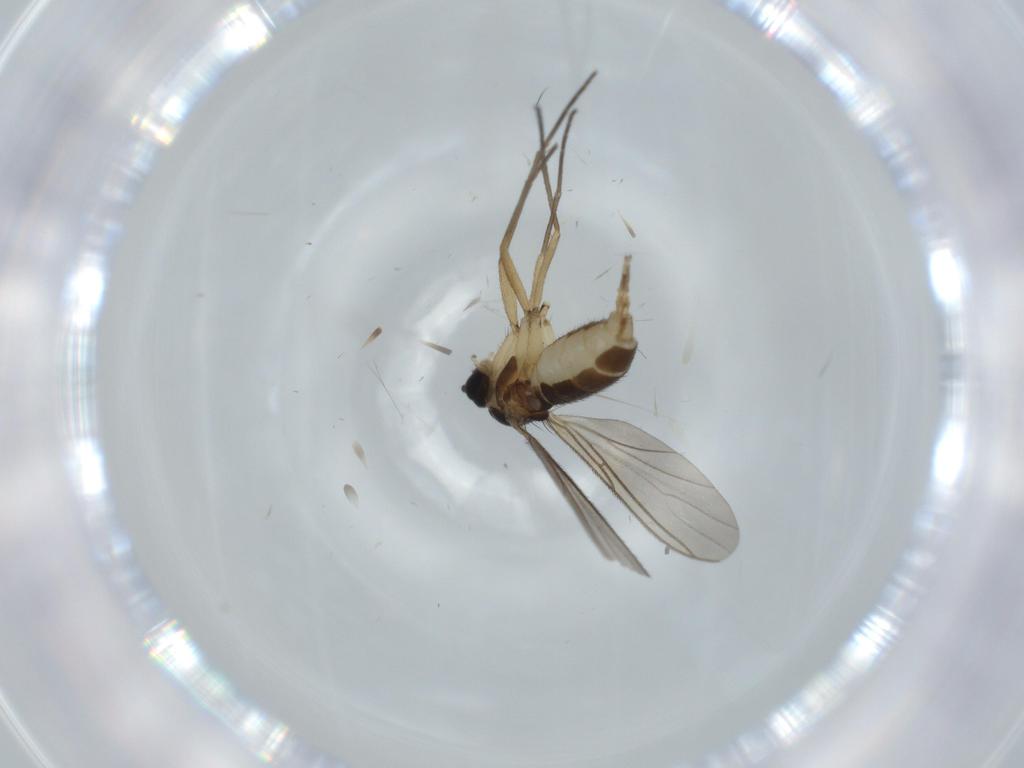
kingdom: Animalia
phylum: Arthropoda
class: Insecta
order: Diptera
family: Sciaridae
